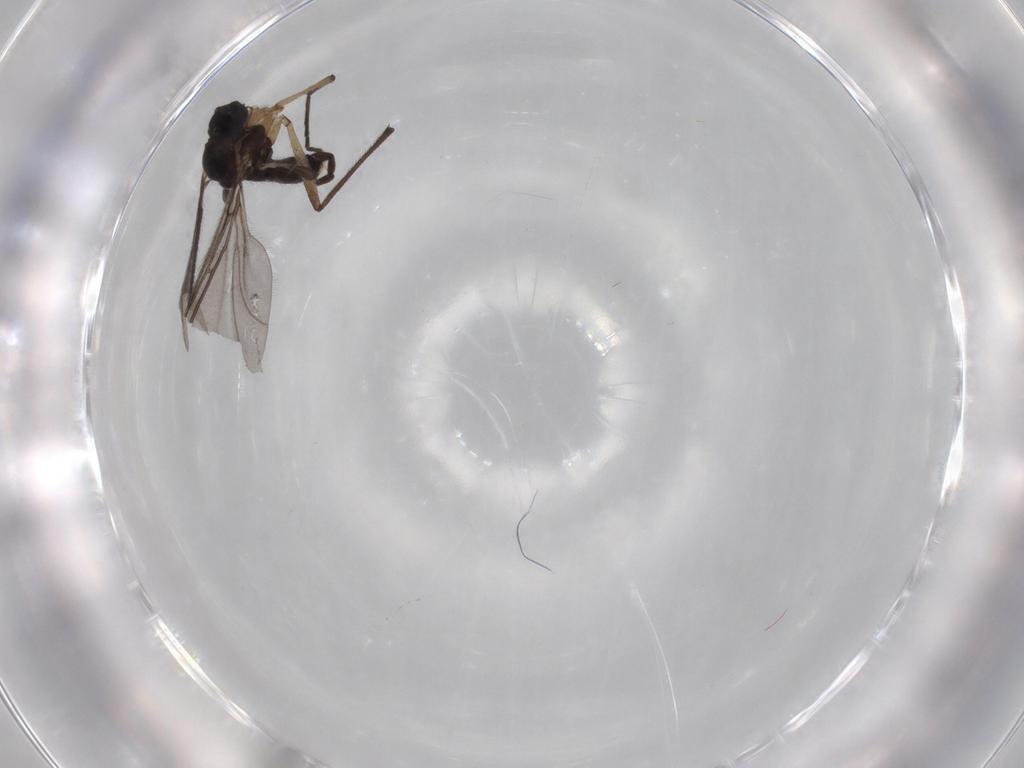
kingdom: Animalia
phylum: Arthropoda
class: Insecta
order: Diptera
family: Sciaridae
